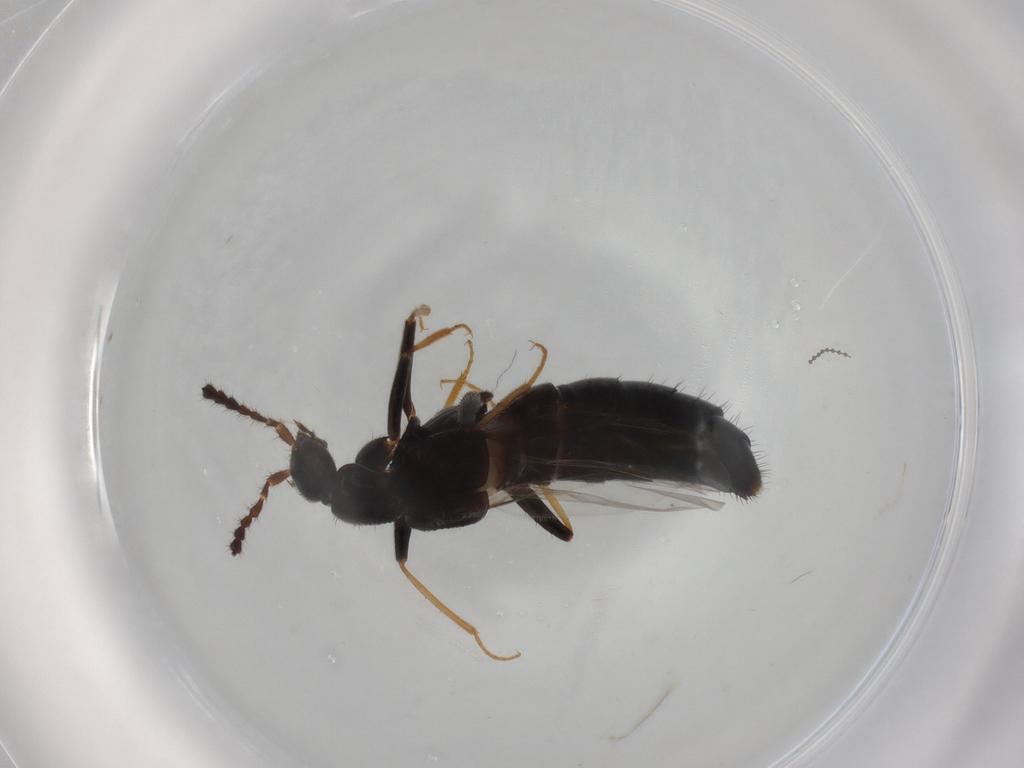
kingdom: Animalia
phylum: Arthropoda
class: Insecta
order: Coleoptera
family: Staphylinidae
